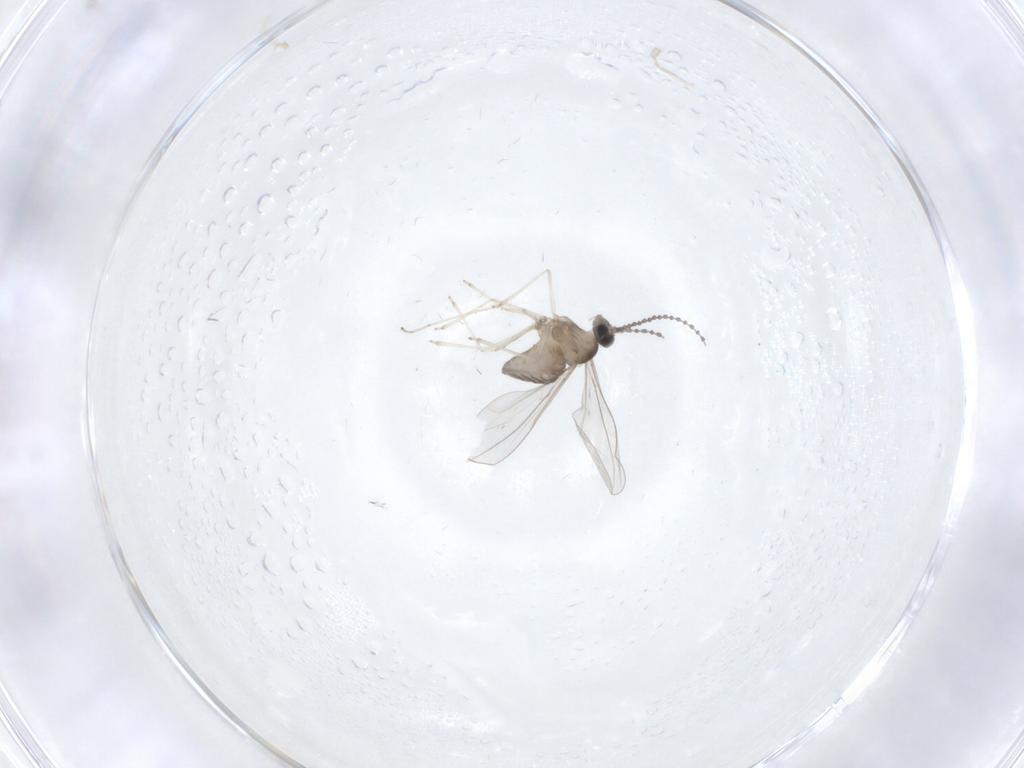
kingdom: Animalia
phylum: Arthropoda
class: Insecta
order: Diptera
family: Cecidomyiidae
